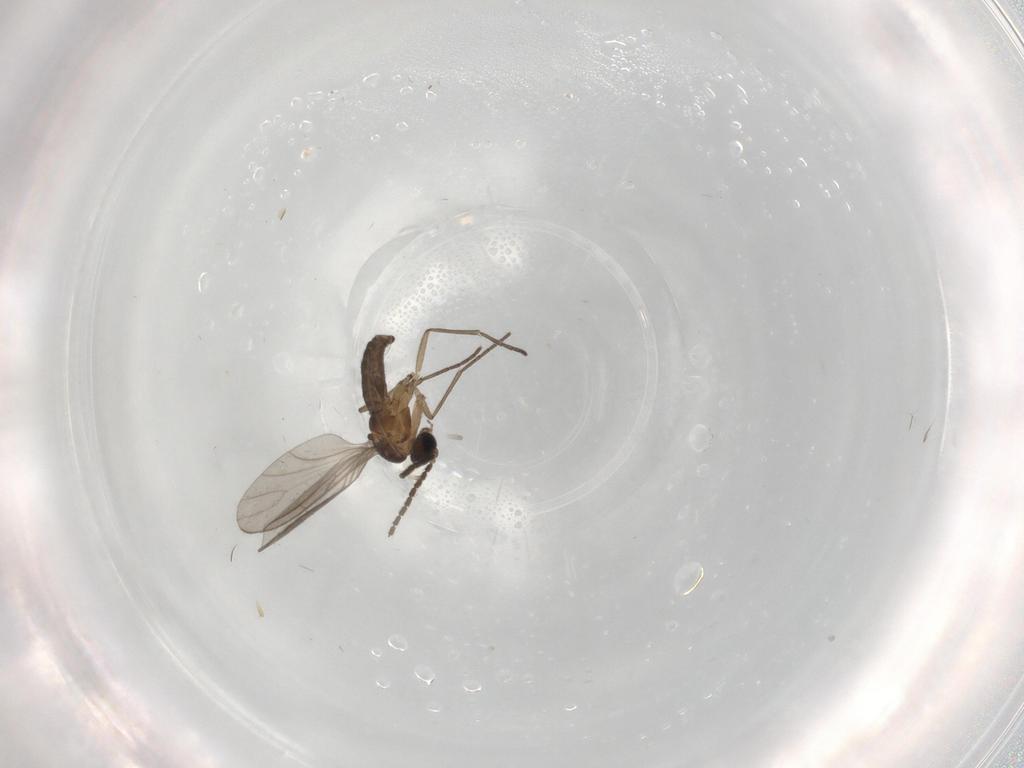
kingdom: Animalia
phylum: Arthropoda
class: Insecta
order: Diptera
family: Sciaridae
